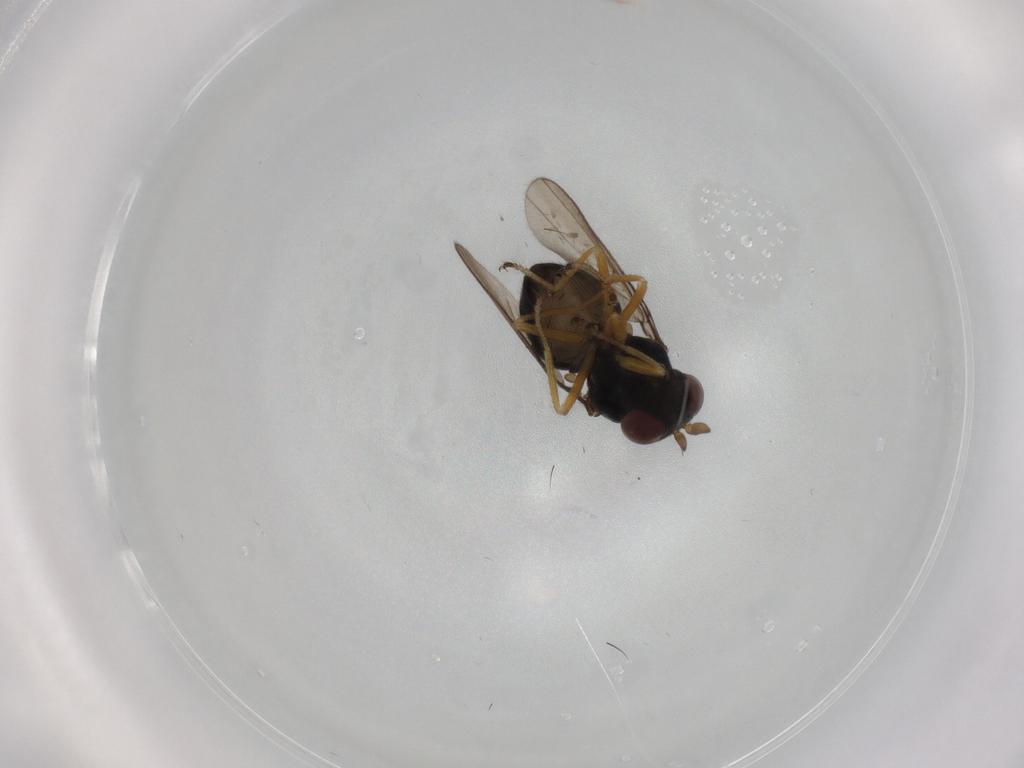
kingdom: Animalia
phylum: Arthropoda
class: Insecta
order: Diptera
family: Ephydridae
